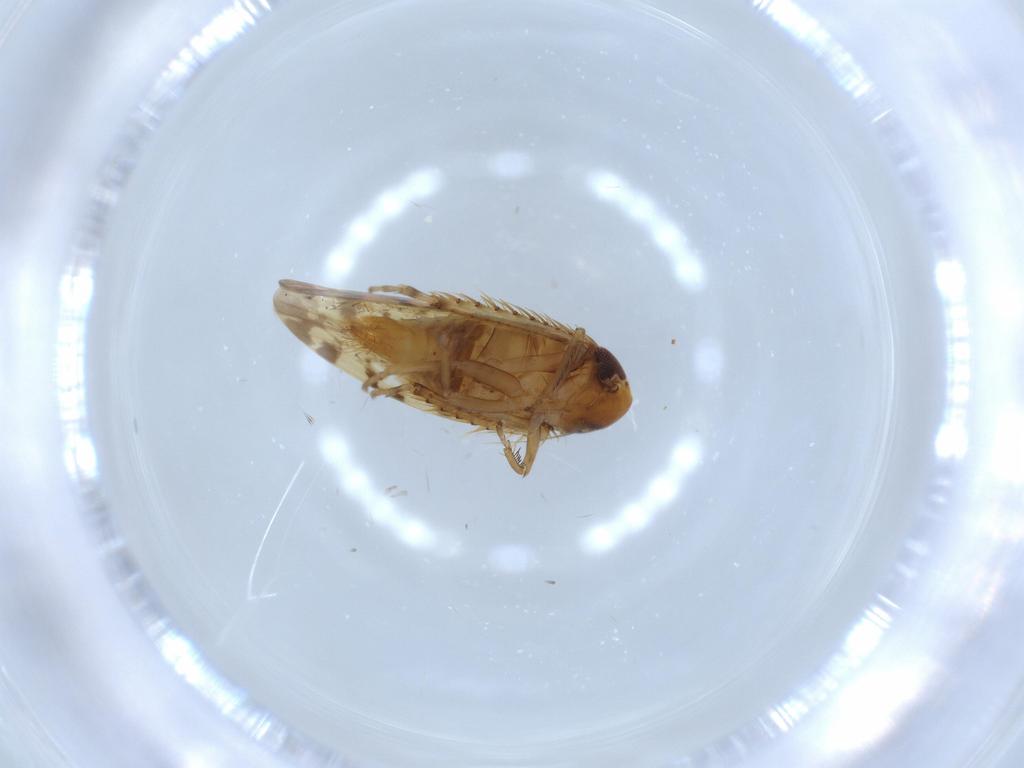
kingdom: Animalia
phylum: Arthropoda
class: Insecta
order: Hemiptera
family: Cicadellidae
